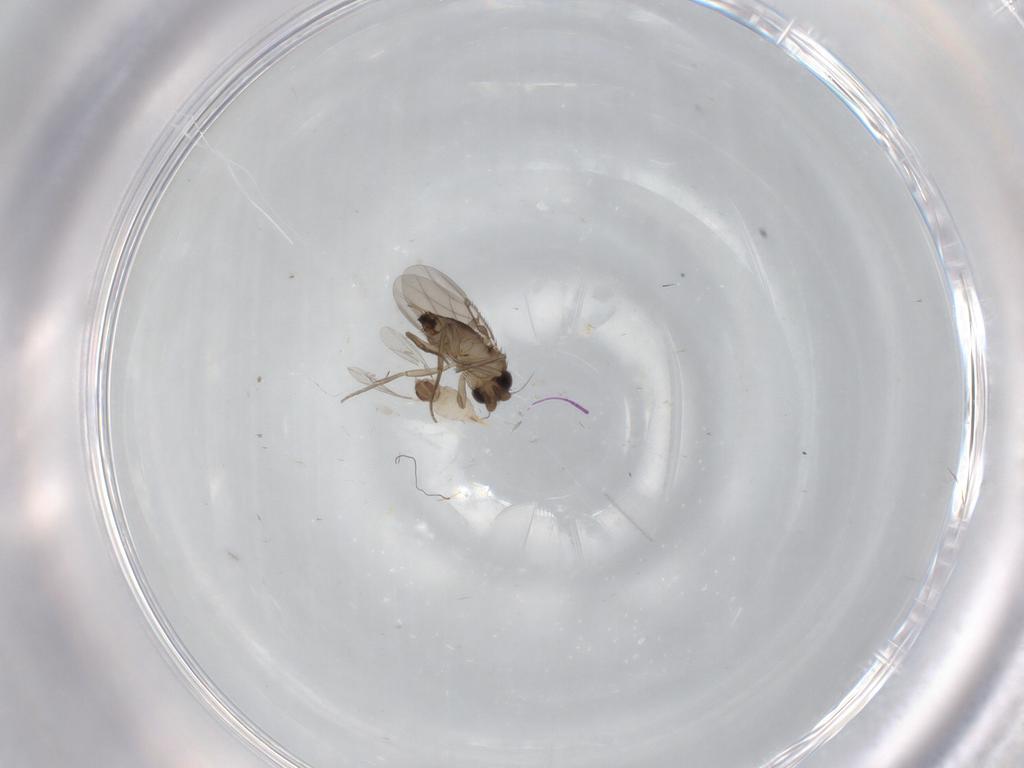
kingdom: Animalia
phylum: Arthropoda
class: Insecta
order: Diptera
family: Cecidomyiidae
